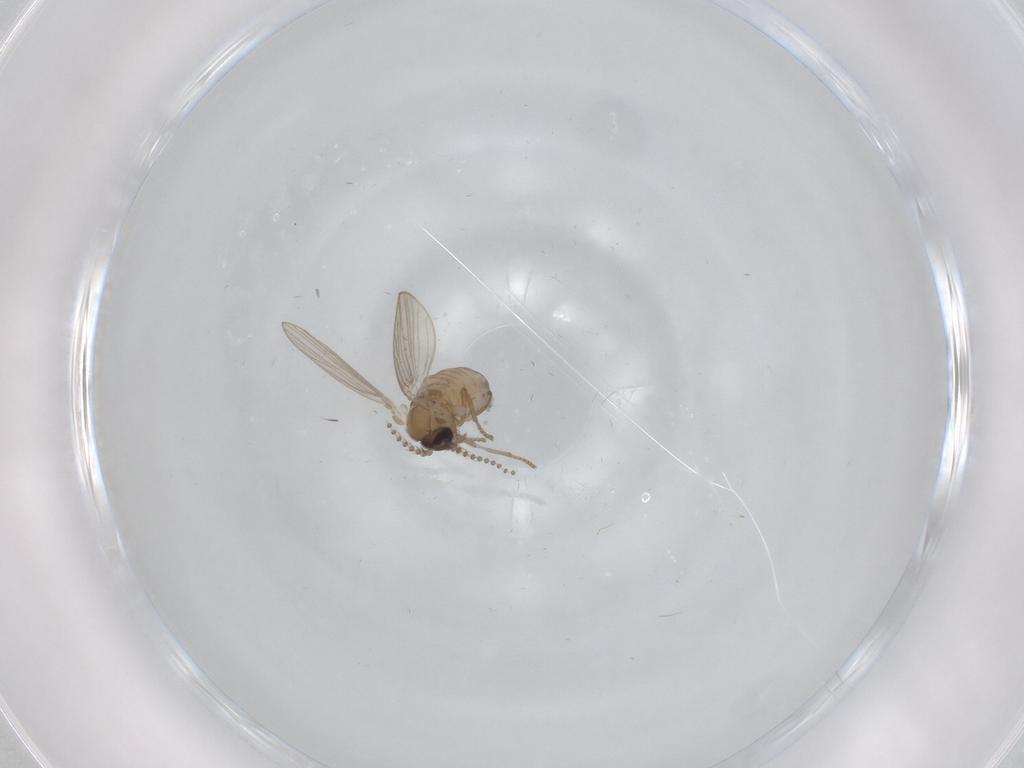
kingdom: Animalia
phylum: Arthropoda
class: Insecta
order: Diptera
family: Psychodidae
